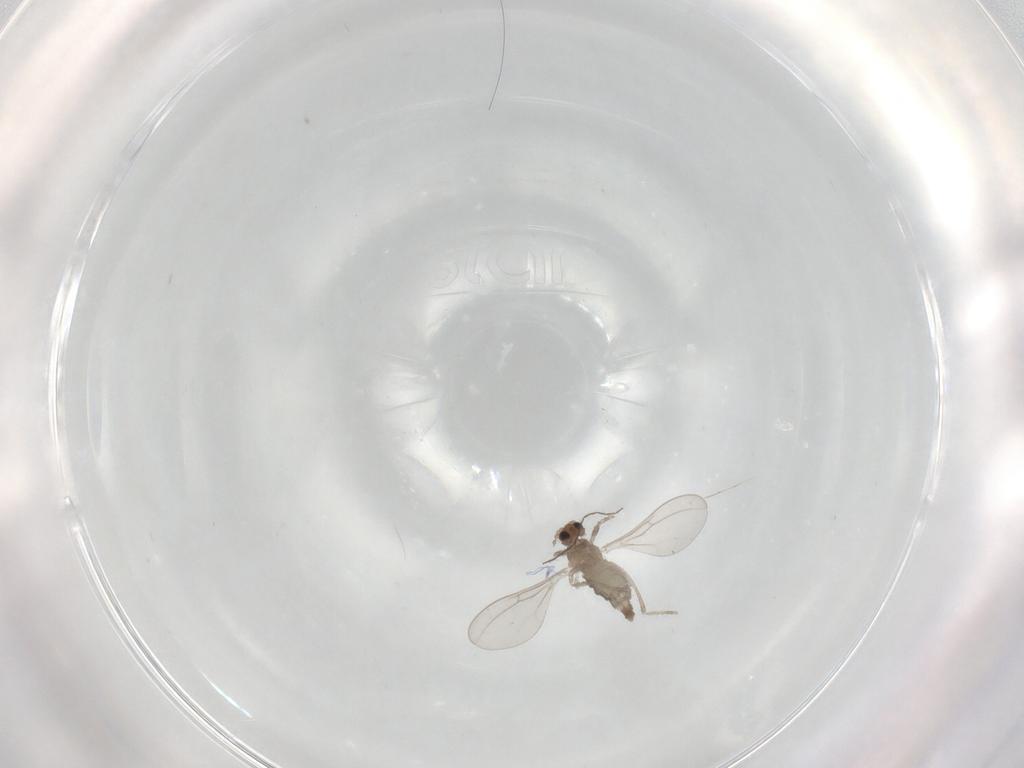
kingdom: Animalia
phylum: Arthropoda
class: Insecta
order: Diptera
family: Cecidomyiidae
